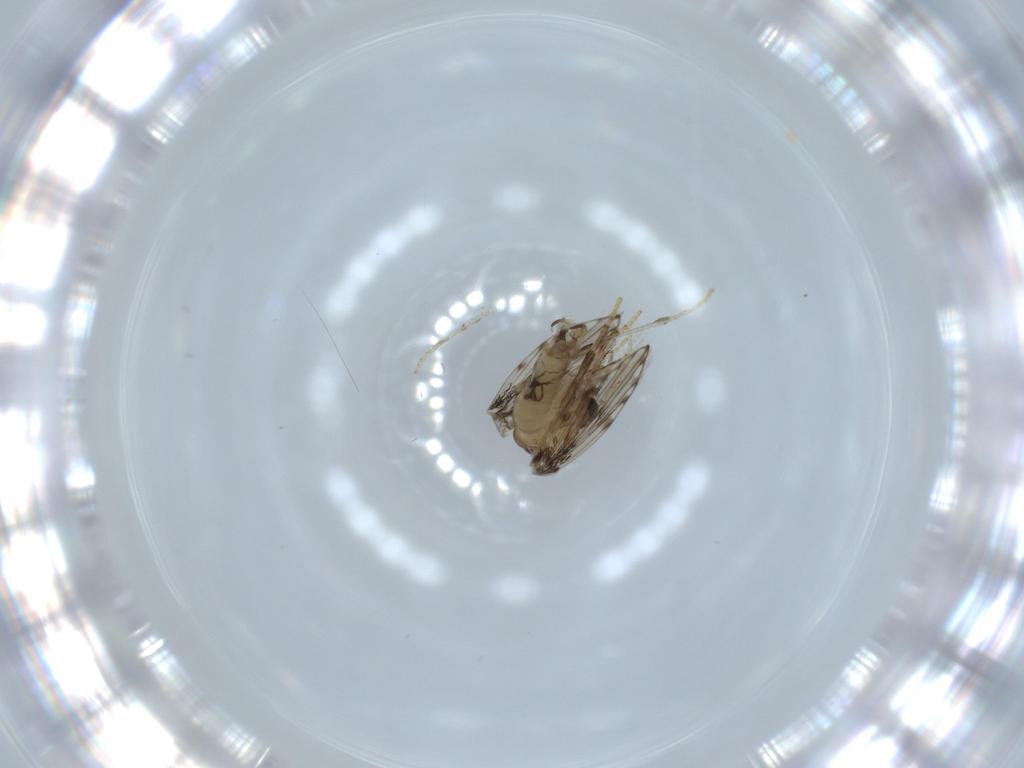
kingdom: Animalia
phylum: Arthropoda
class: Insecta
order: Diptera
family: Psychodidae
